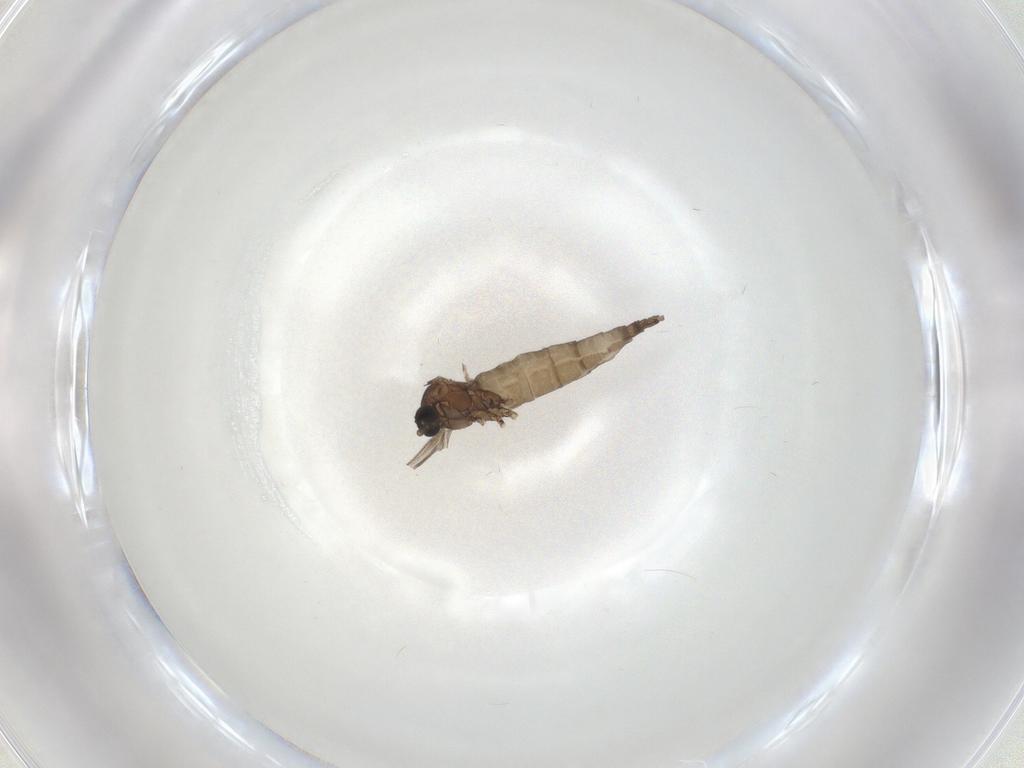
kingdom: Animalia
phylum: Arthropoda
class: Insecta
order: Diptera
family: Sciaridae
